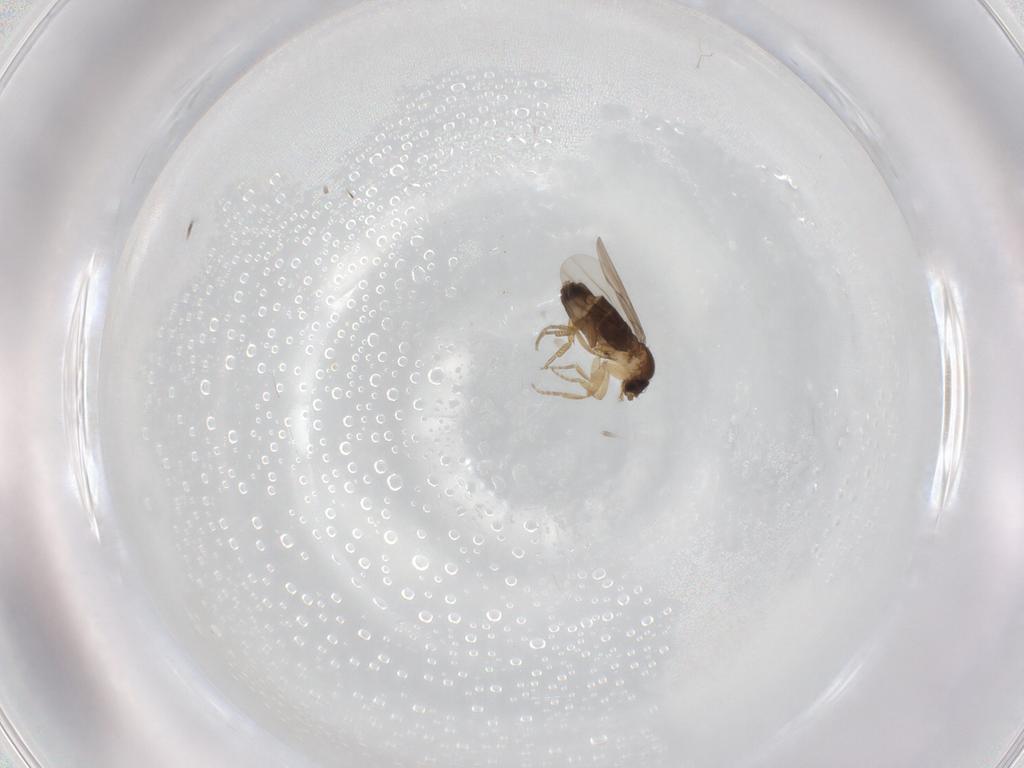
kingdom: Animalia
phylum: Arthropoda
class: Insecta
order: Diptera
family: Phoridae
